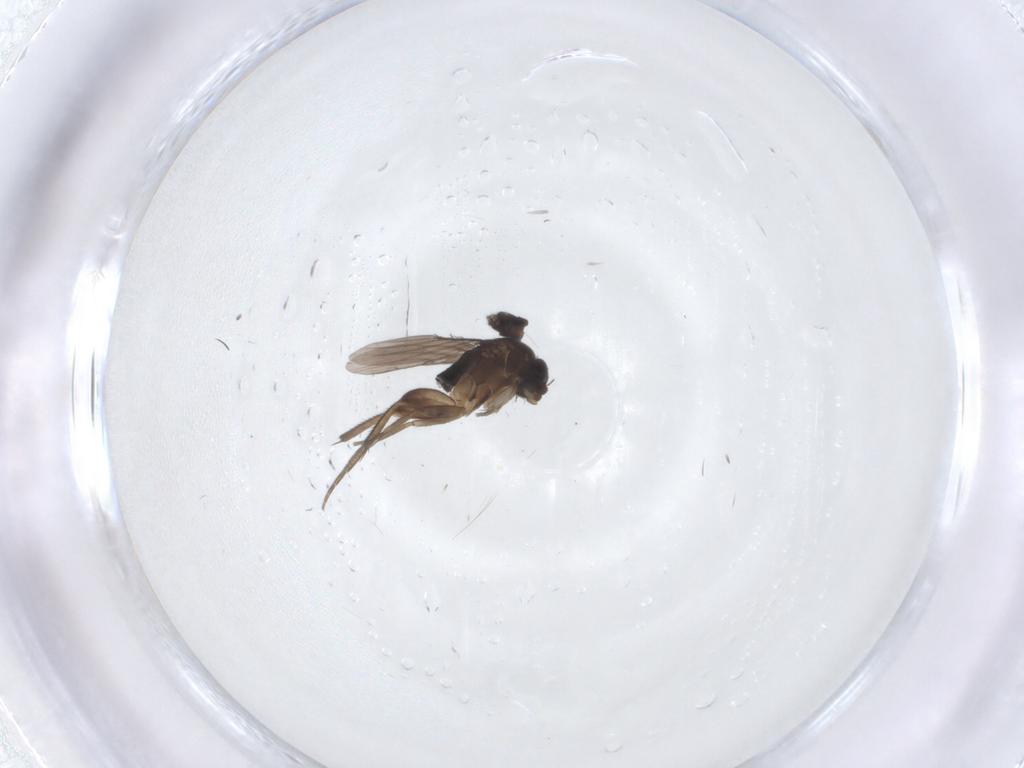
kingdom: Animalia
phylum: Arthropoda
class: Insecta
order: Diptera
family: Phoridae
